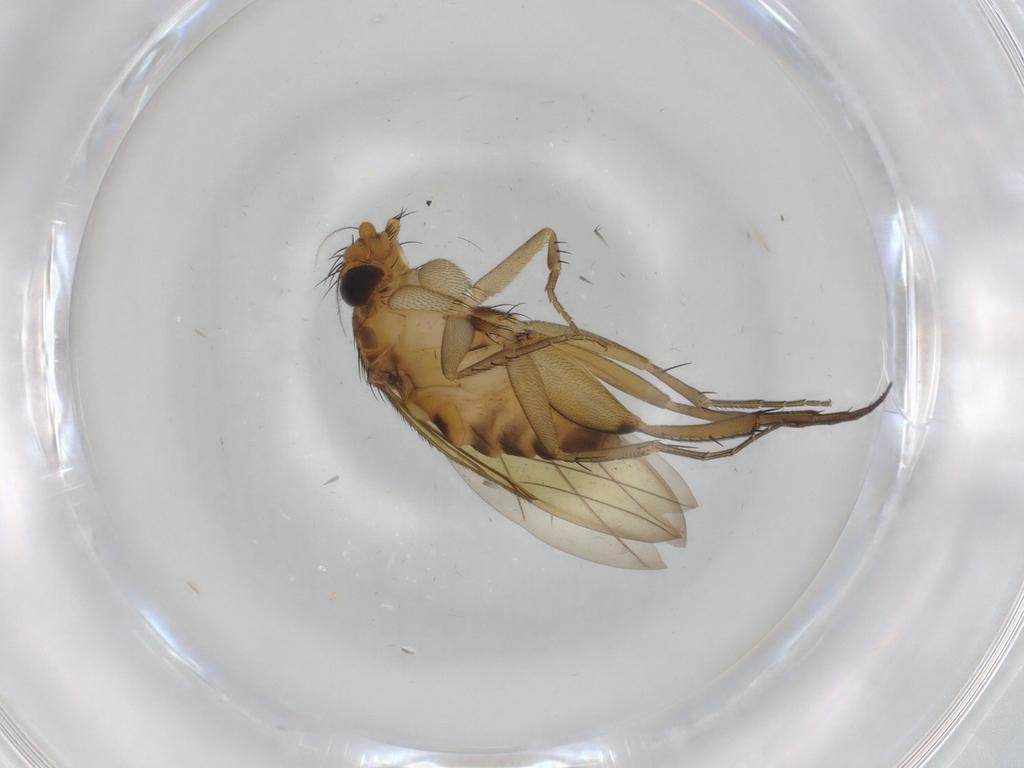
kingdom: Animalia
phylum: Arthropoda
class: Insecta
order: Diptera
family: Phoridae
